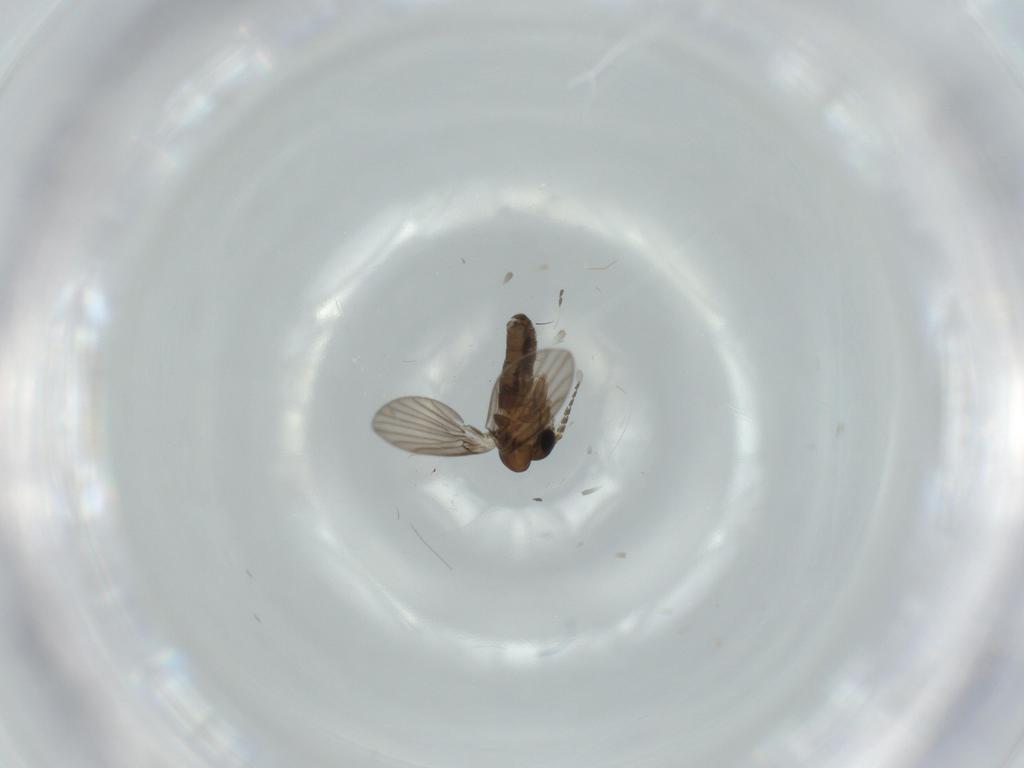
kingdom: Animalia
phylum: Arthropoda
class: Insecta
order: Diptera
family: Psychodidae
